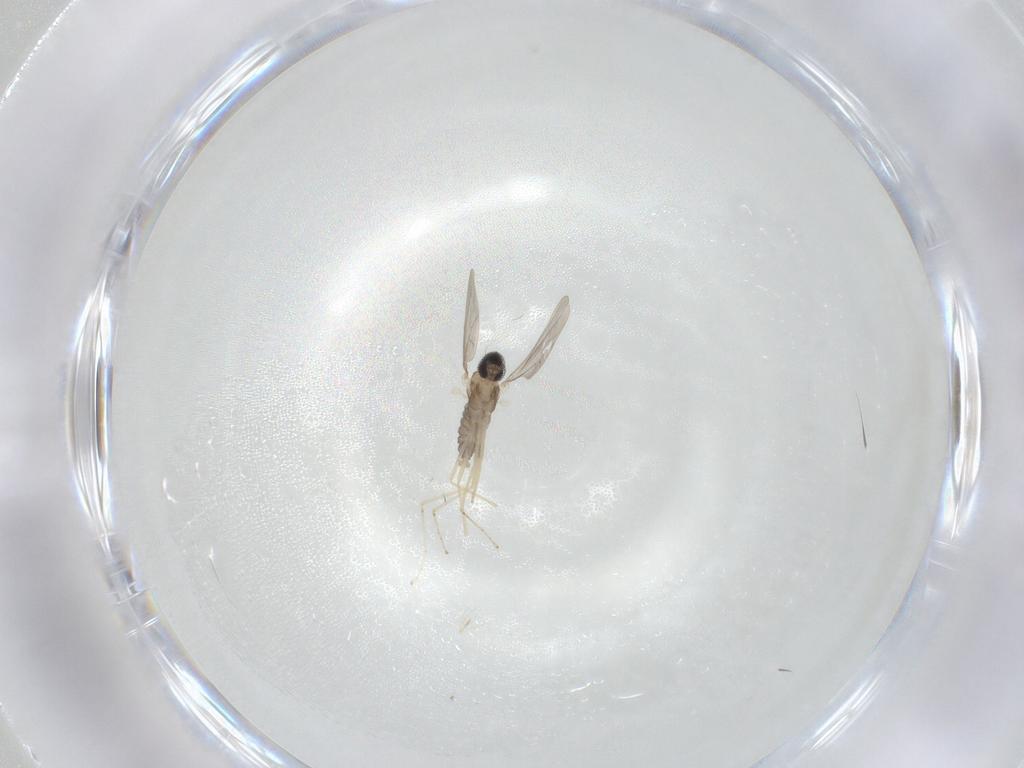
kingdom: Animalia
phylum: Arthropoda
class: Insecta
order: Diptera
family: Cecidomyiidae
